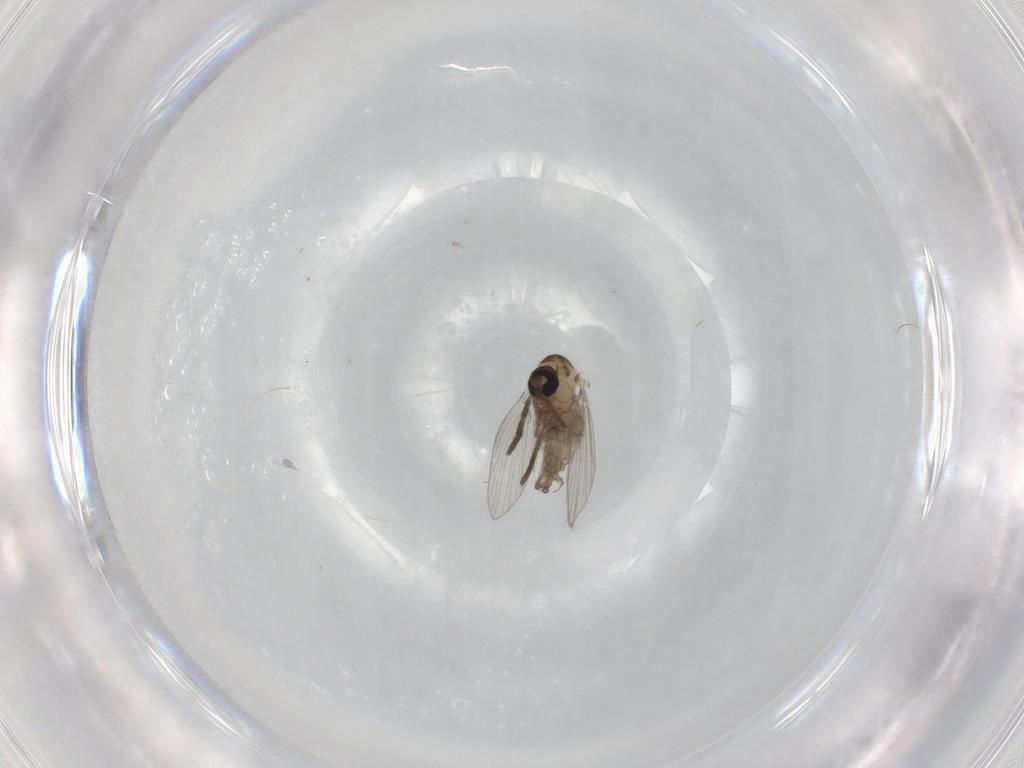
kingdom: Animalia
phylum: Arthropoda
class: Insecta
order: Diptera
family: Psychodidae
